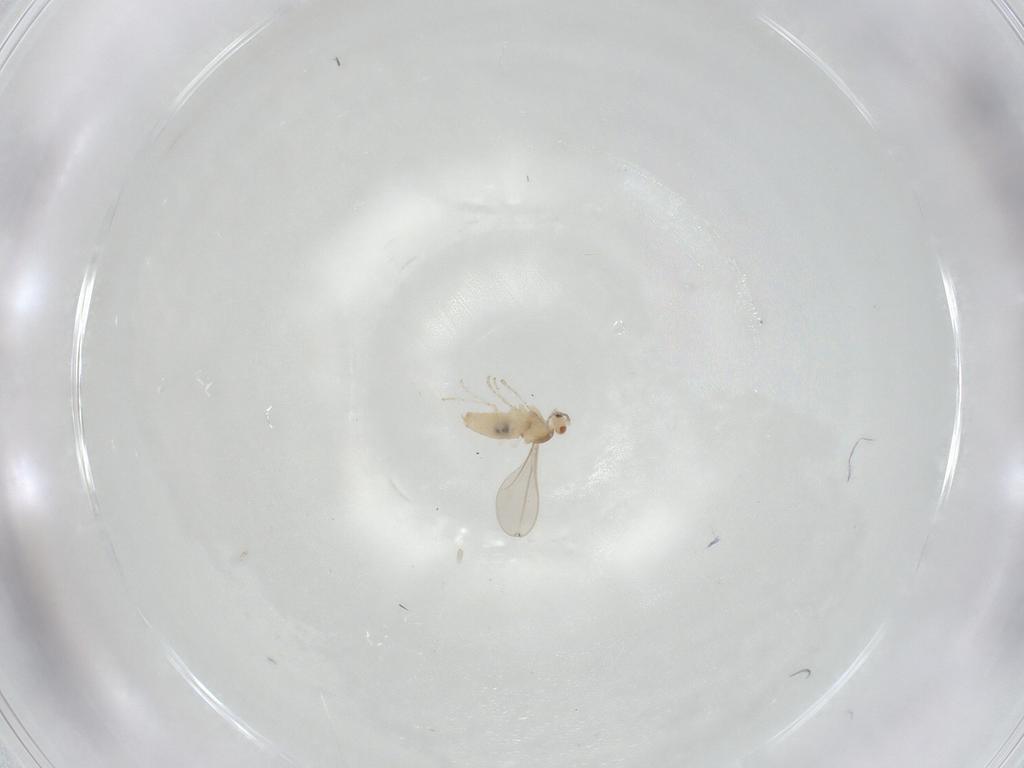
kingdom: Animalia
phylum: Arthropoda
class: Insecta
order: Diptera
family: Cecidomyiidae
